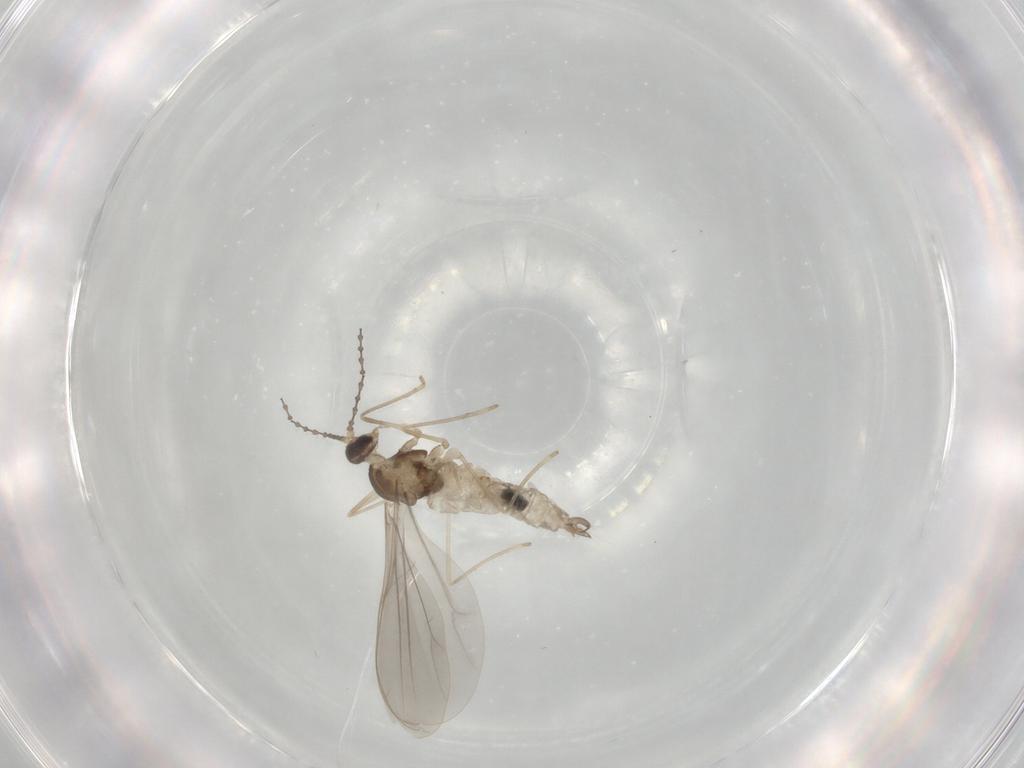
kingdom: Animalia
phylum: Arthropoda
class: Insecta
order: Diptera
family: Cecidomyiidae
